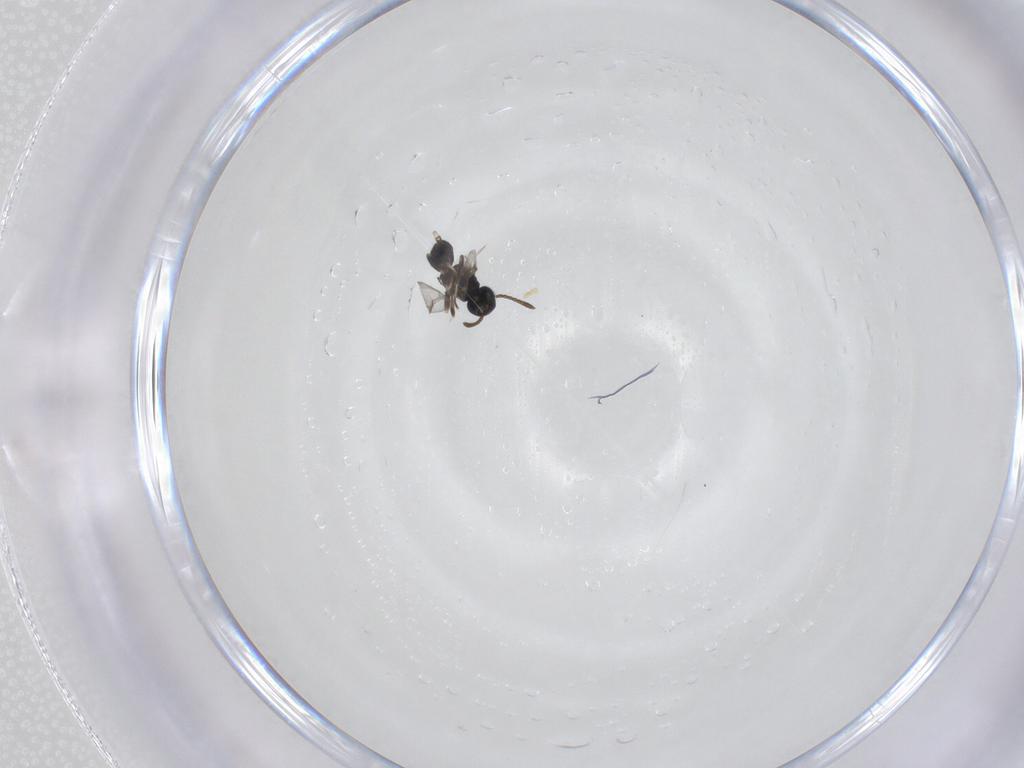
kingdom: Animalia
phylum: Arthropoda
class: Insecta
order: Hymenoptera
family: Eupelmidae
